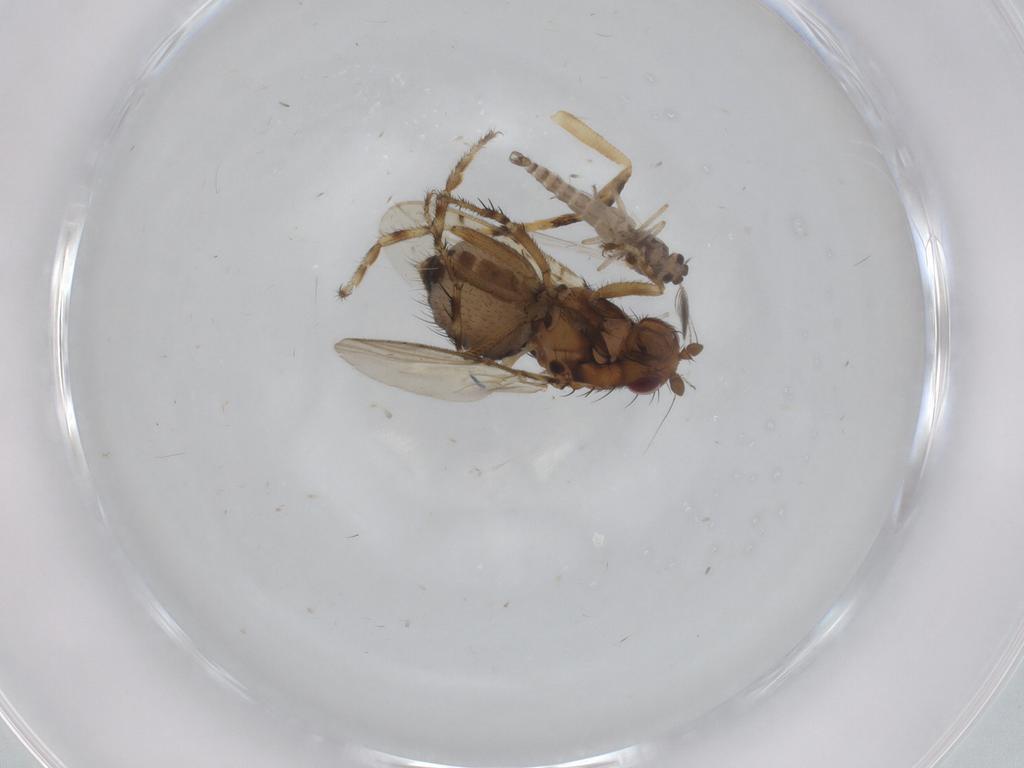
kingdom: Animalia
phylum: Arthropoda
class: Insecta
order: Diptera
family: Sphaeroceridae
